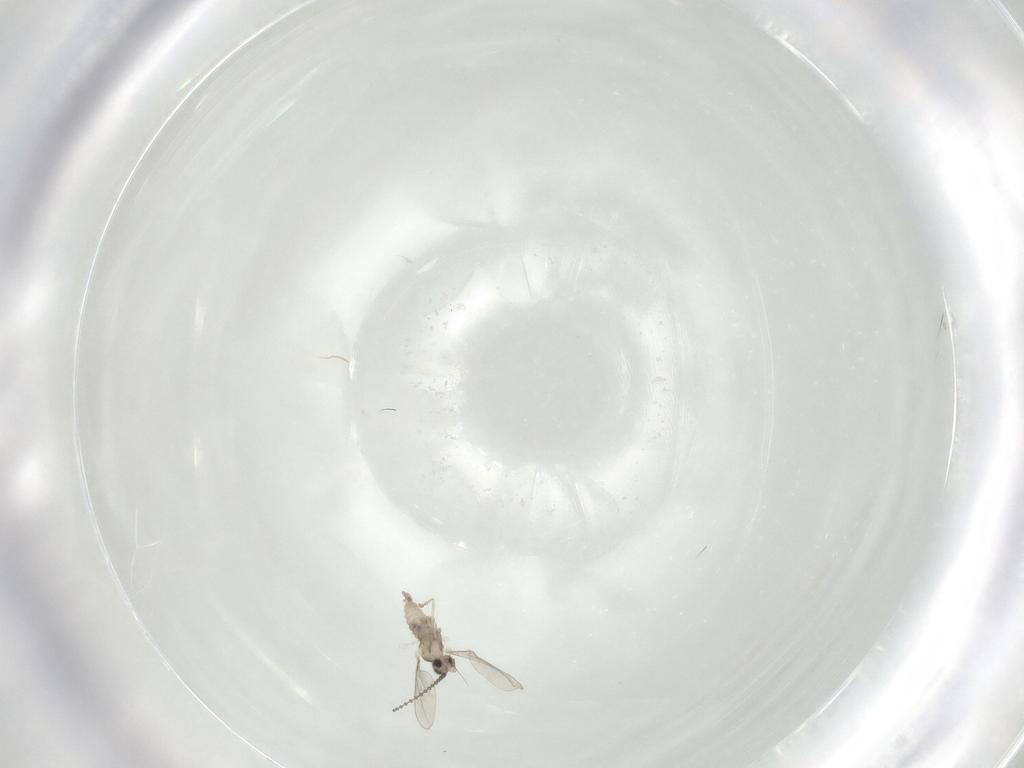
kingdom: Animalia
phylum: Arthropoda
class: Insecta
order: Diptera
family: Cecidomyiidae
